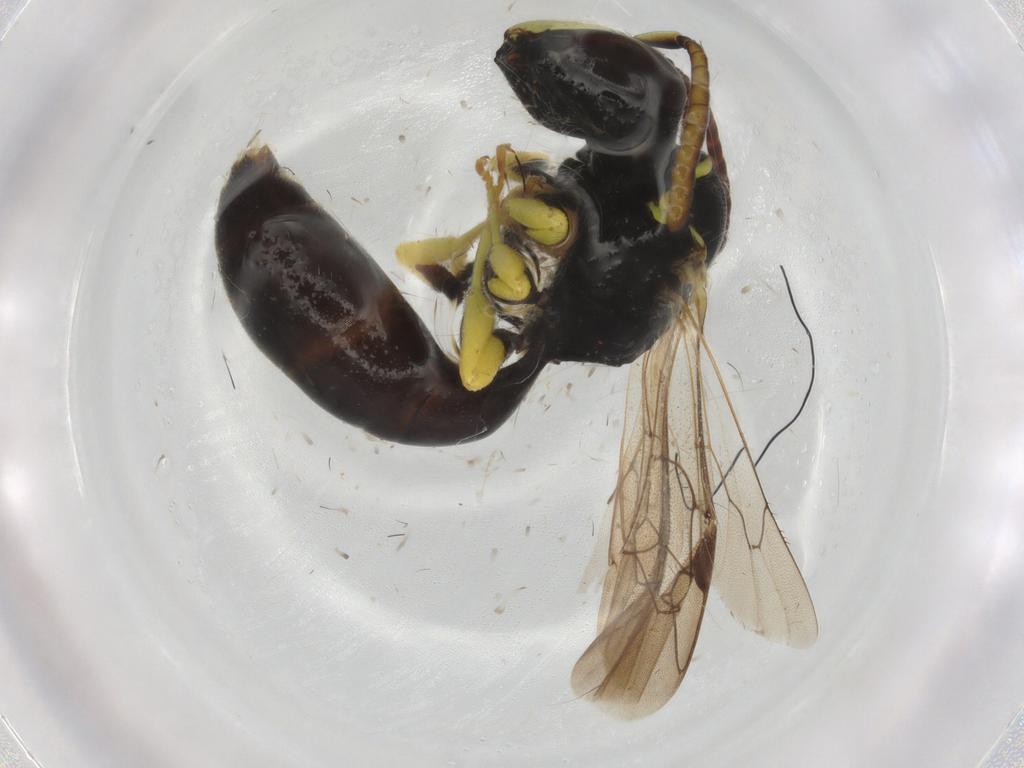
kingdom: Animalia
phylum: Arthropoda
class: Insecta
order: Hymenoptera
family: Colletidae
